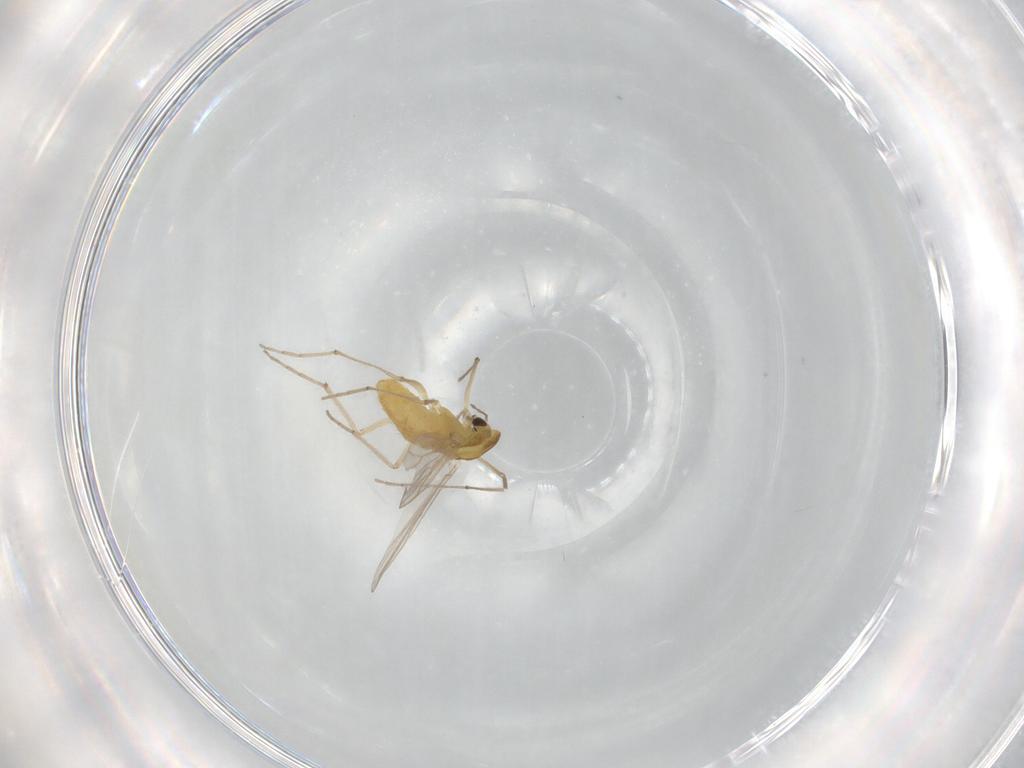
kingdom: Animalia
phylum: Arthropoda
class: Insecta
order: Diptera
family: Chironomidae
